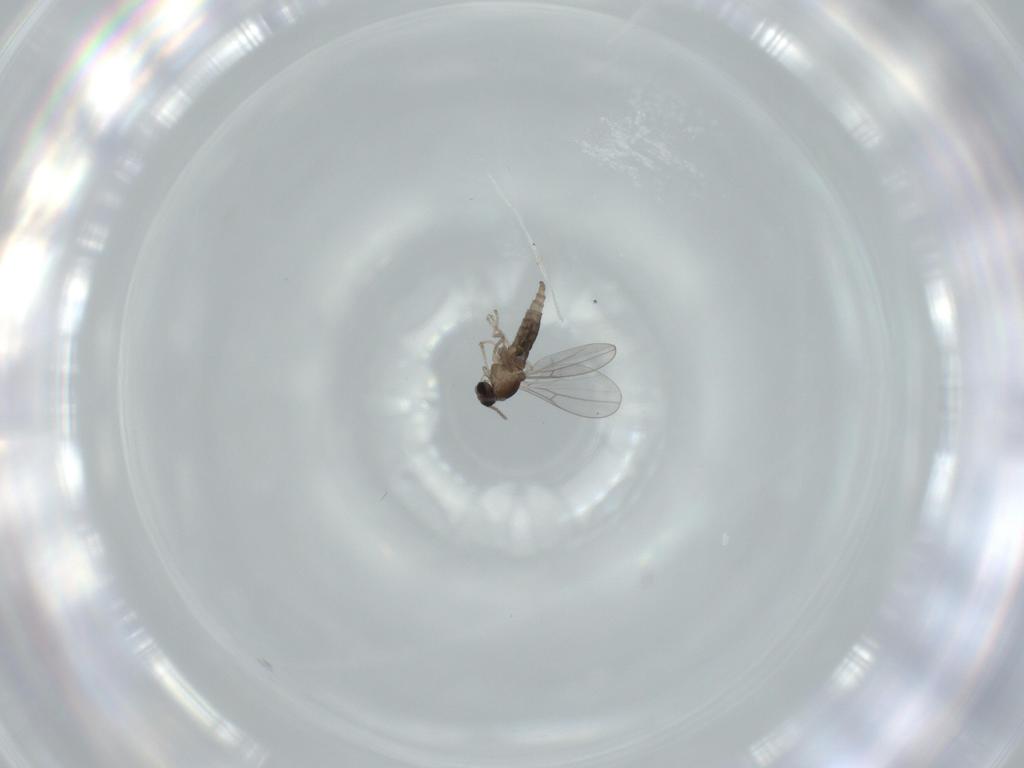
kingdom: Animalia
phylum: Arthropoda
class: Insecta
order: Diptera
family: Cecidomyiidae
